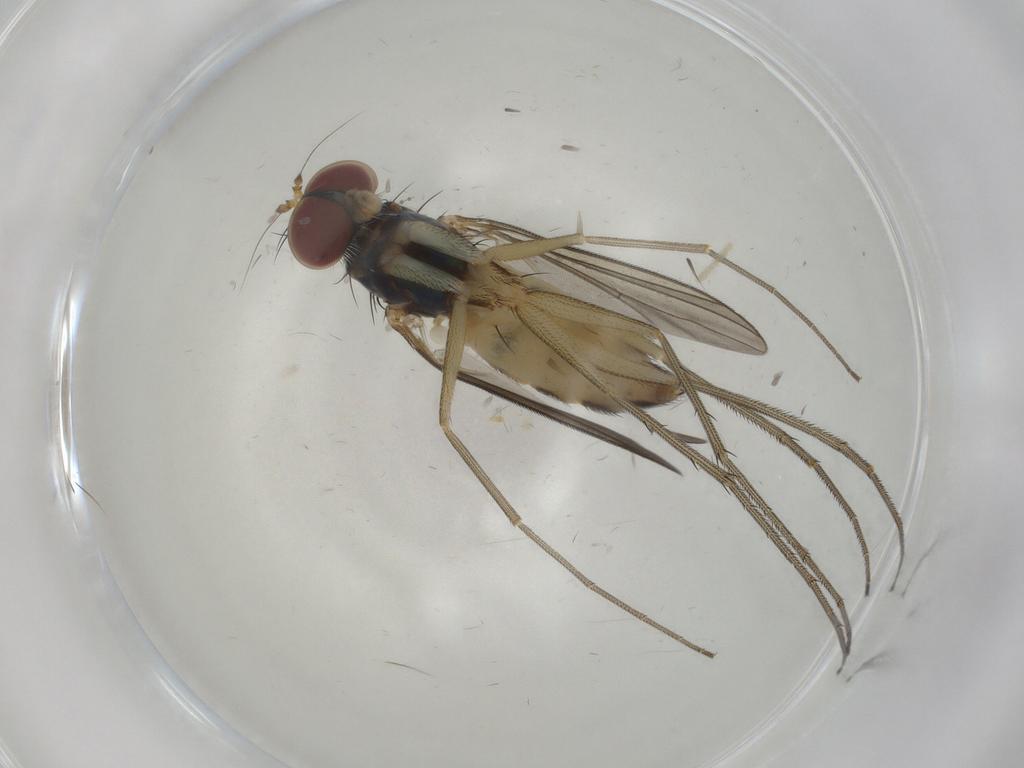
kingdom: Animalia
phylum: Arthropoda
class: Insecta
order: Diptera
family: Dolichopodidae
